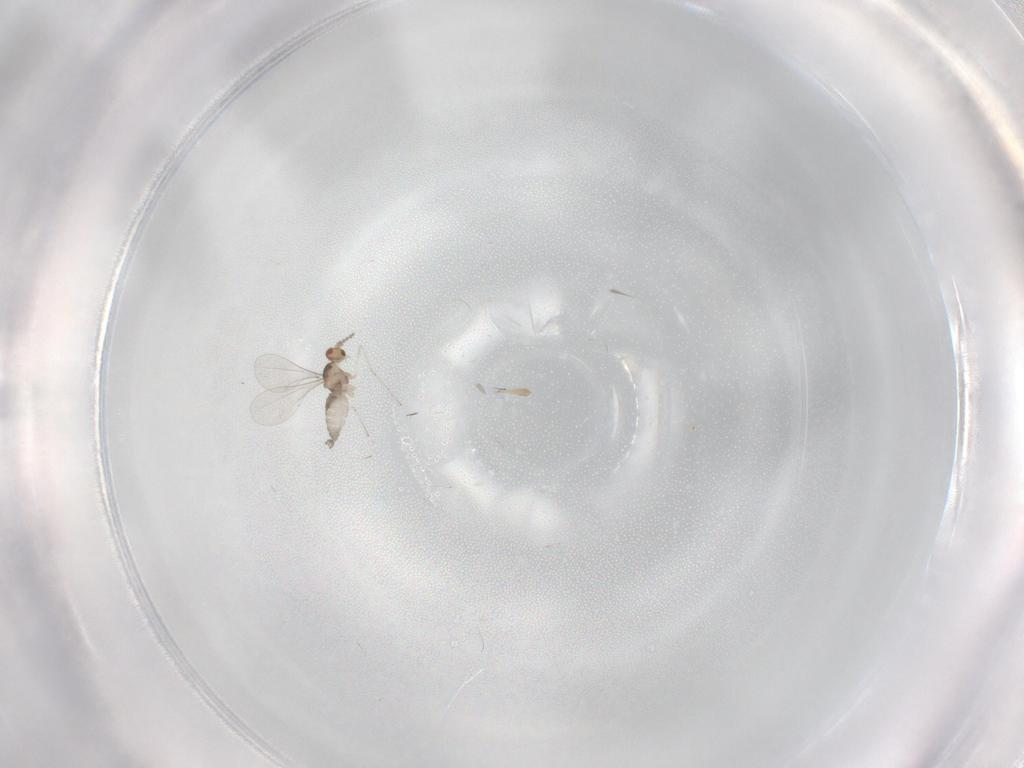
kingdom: Animalia
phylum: Arthropoda
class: Insecta
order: Diptera
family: Cecidomyiidae
